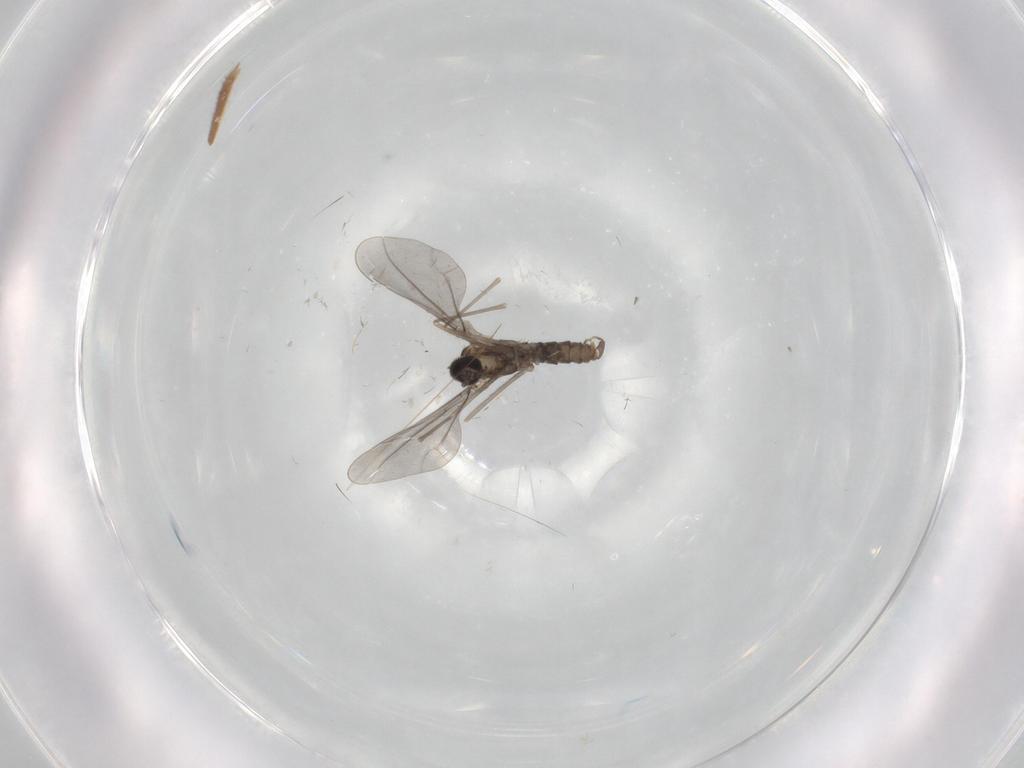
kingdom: Animalia
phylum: Arthropoda
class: Insecta
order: Diptera
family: Cecidomyiidae
